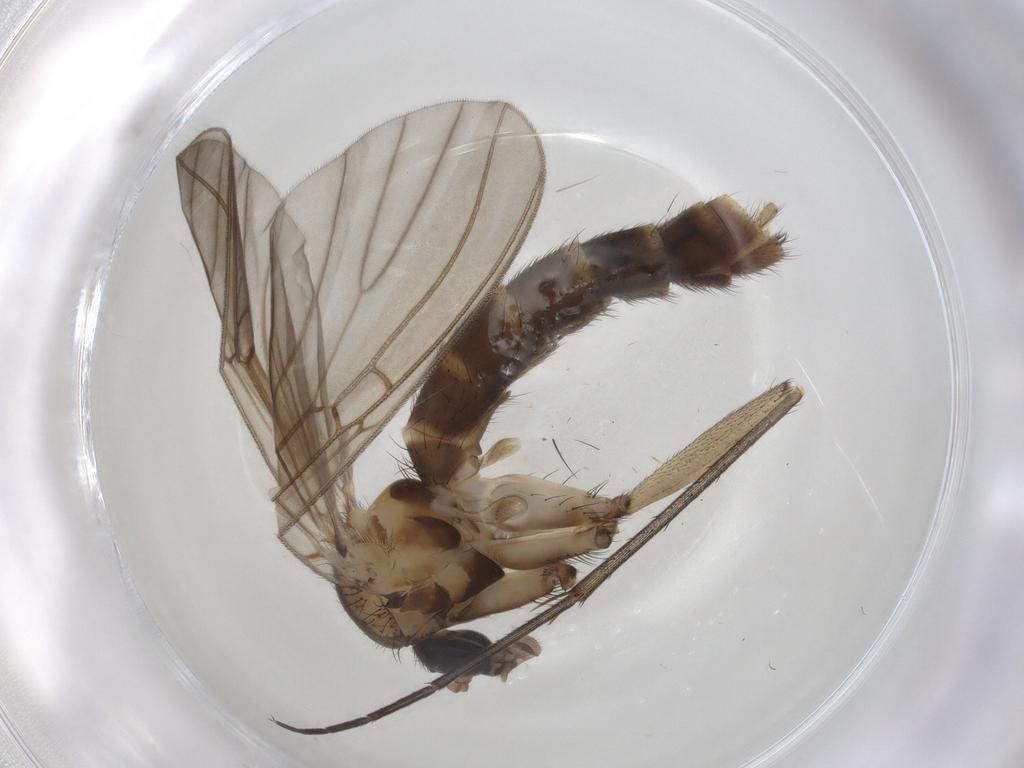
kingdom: Animalia
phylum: Arthropoda
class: Insecta
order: Diptera
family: Mycetophilidae
